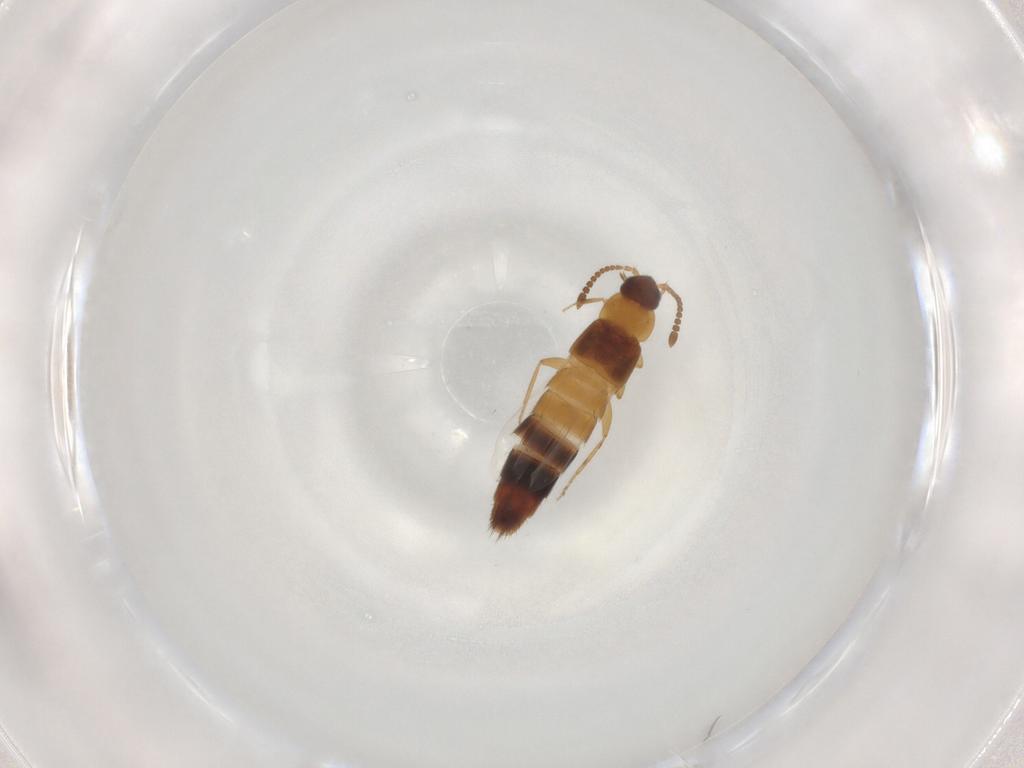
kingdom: Animalia
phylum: Arthropoda
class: Insecta
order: Coleoptera
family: Staphylinidae
